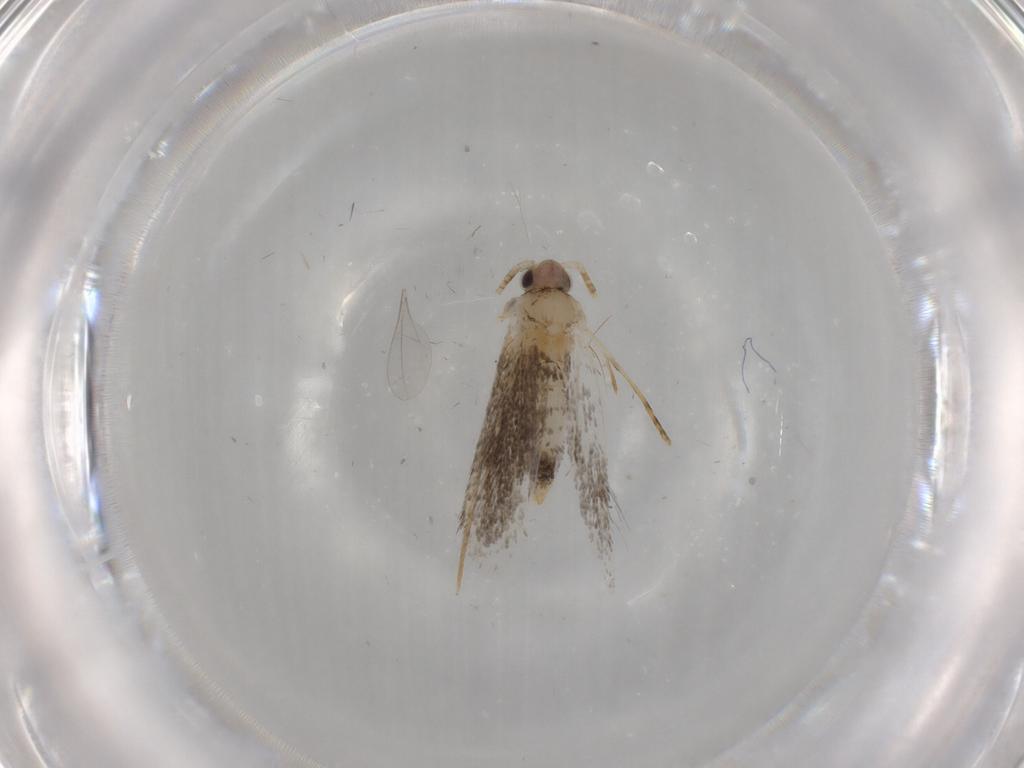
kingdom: Animalia
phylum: Arthropoda
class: Insecta
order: Lepidoptera
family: Tineidae
